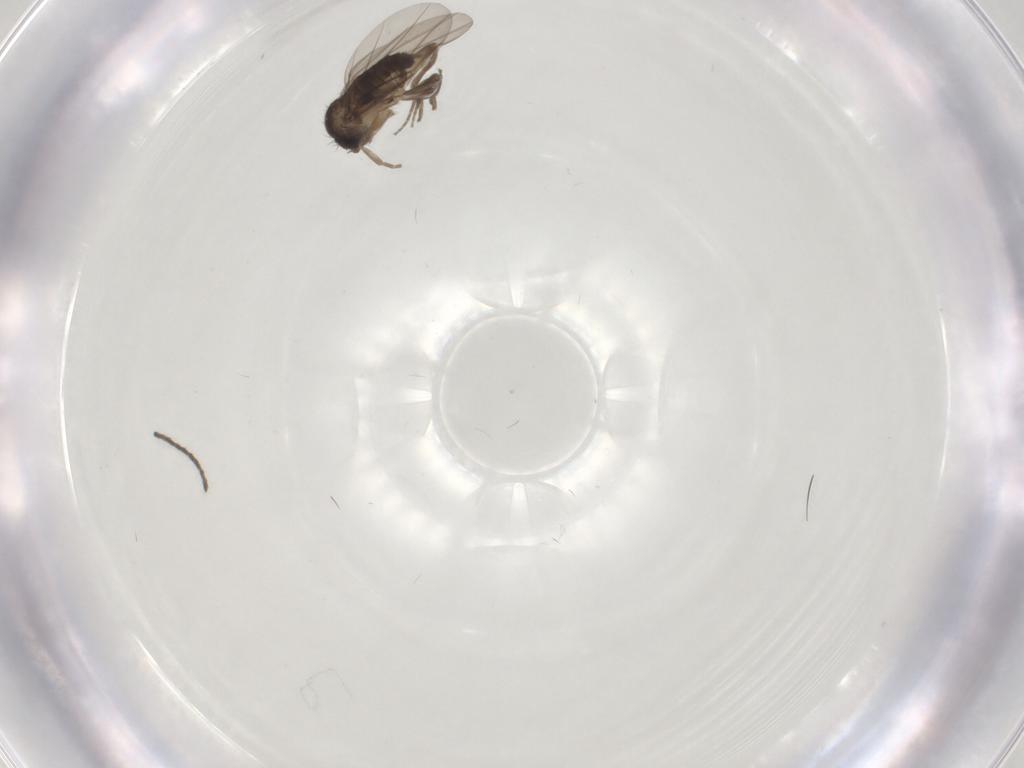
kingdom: Animalia
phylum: Arthropoda
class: Insecta
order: Diptera
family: Phoridae
